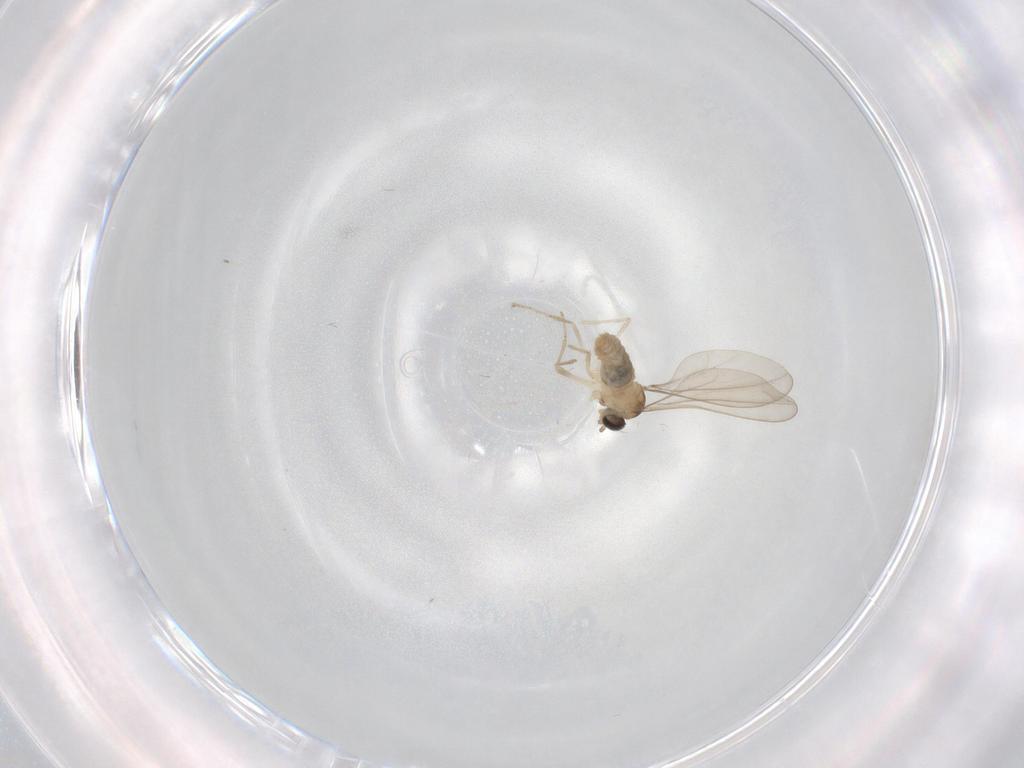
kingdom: Animalia
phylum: Arthropoda
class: Insecta
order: Diptera
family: Cecidomyiidae
